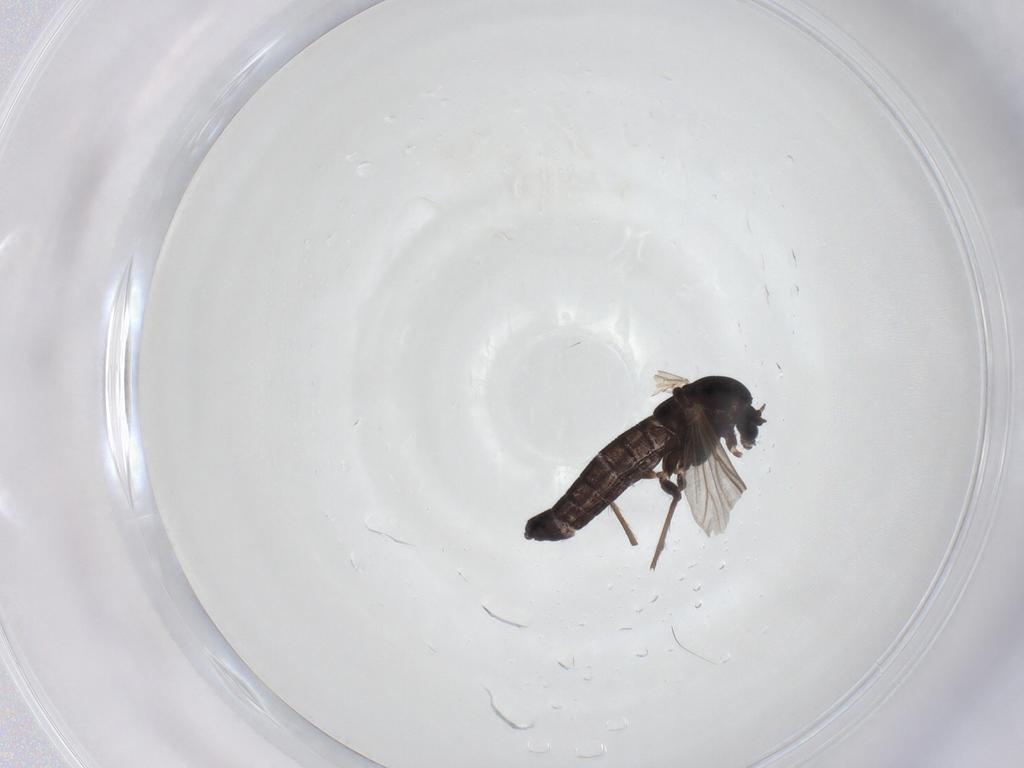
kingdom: Animalia
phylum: Arthropoda
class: Insecta
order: Diptera
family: Chironomidae
